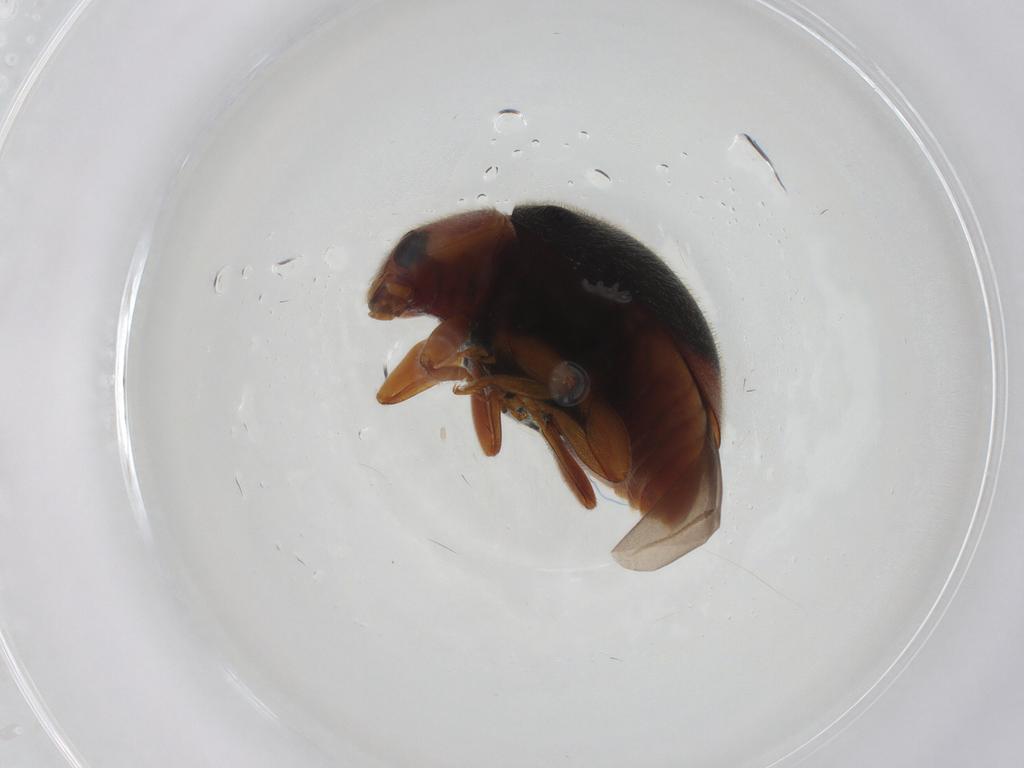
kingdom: Animalia
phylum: Arthropoda
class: Insecta
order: Coleoptera
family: Coccinellidae
